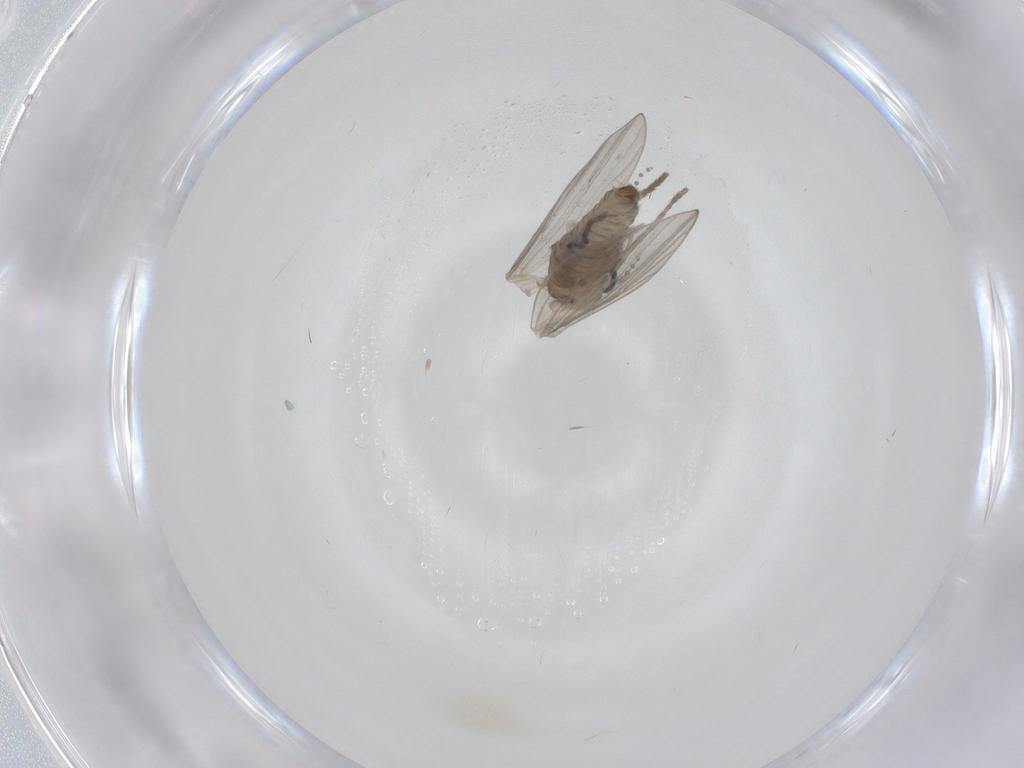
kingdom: Animalia
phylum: Arthropoda
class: Insecta
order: Diptera
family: Psychodidae
